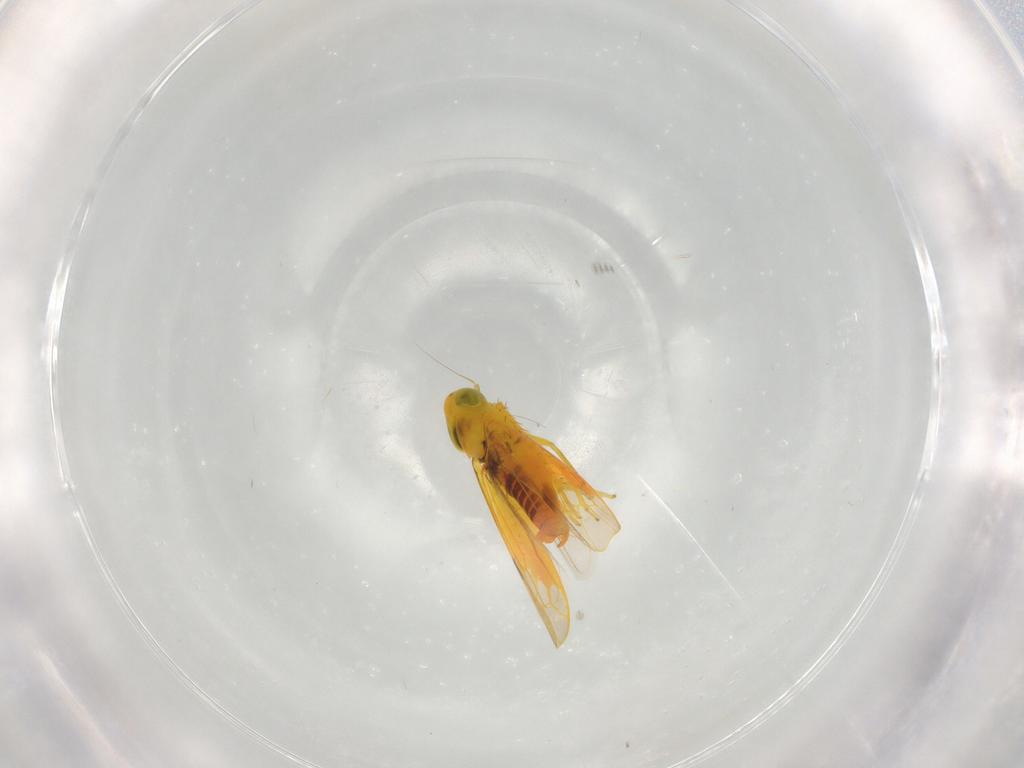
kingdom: Animalia
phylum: Arthropoda
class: Insecta
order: Hemiptera
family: Cicadellidae
